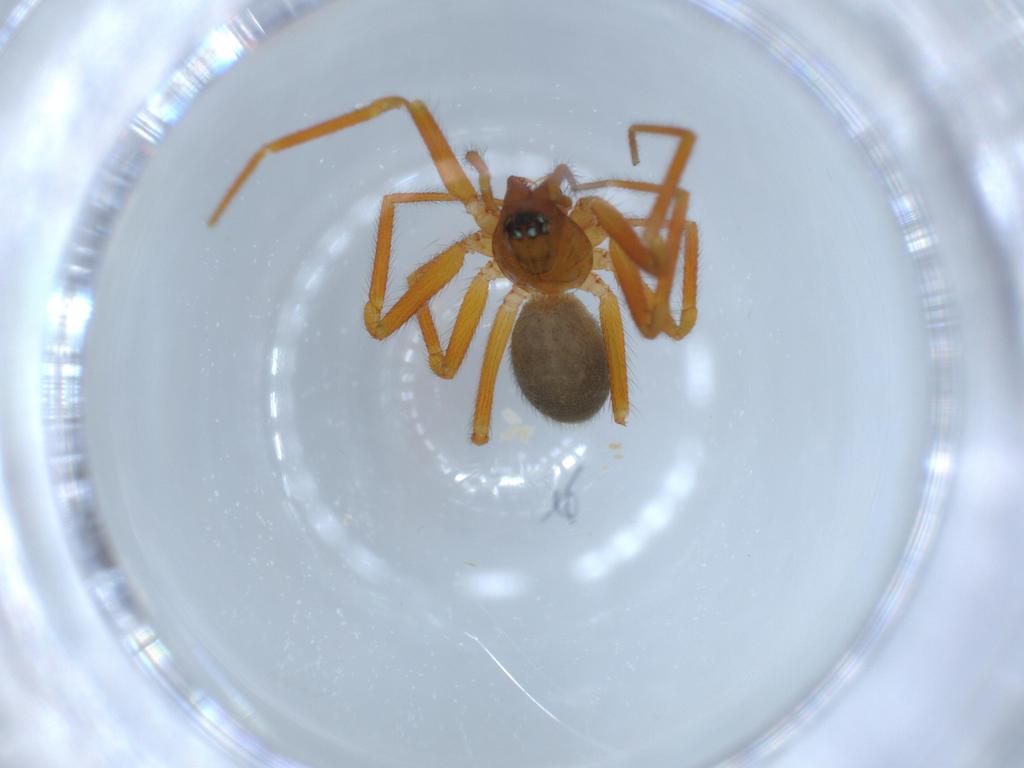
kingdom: Animalia
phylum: Arthropoda
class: Arachnida
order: Araneae
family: Linyphiidae
